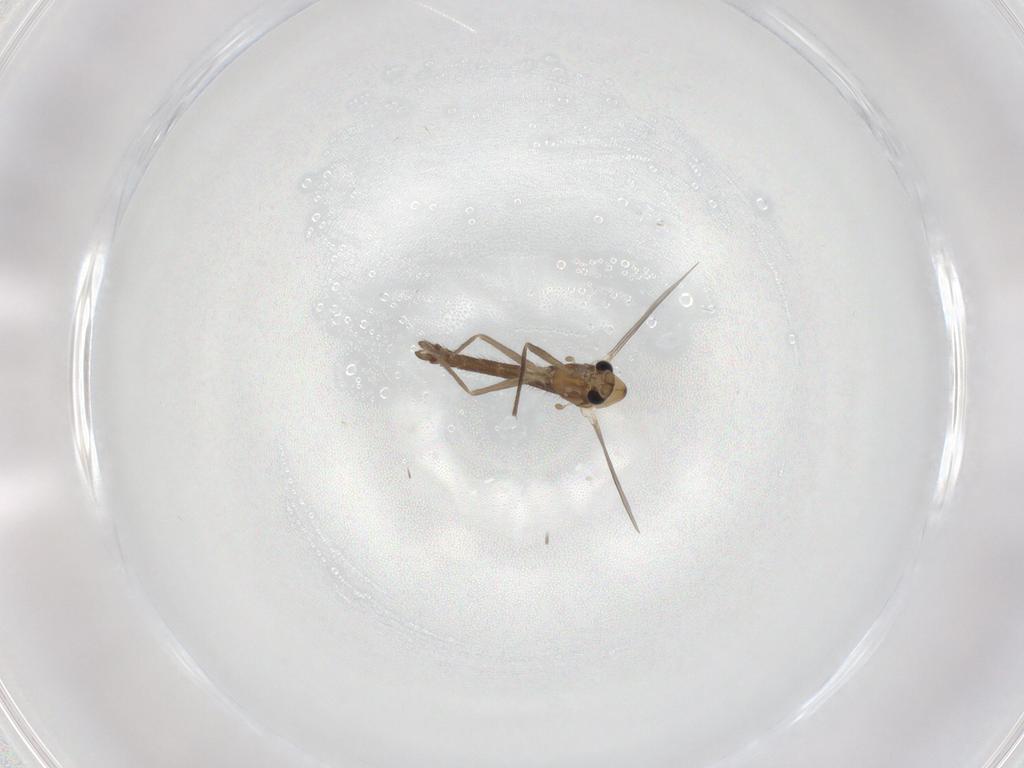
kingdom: Animalia
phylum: Arthropoda
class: Insecta
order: Diptera
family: Chironomidae
